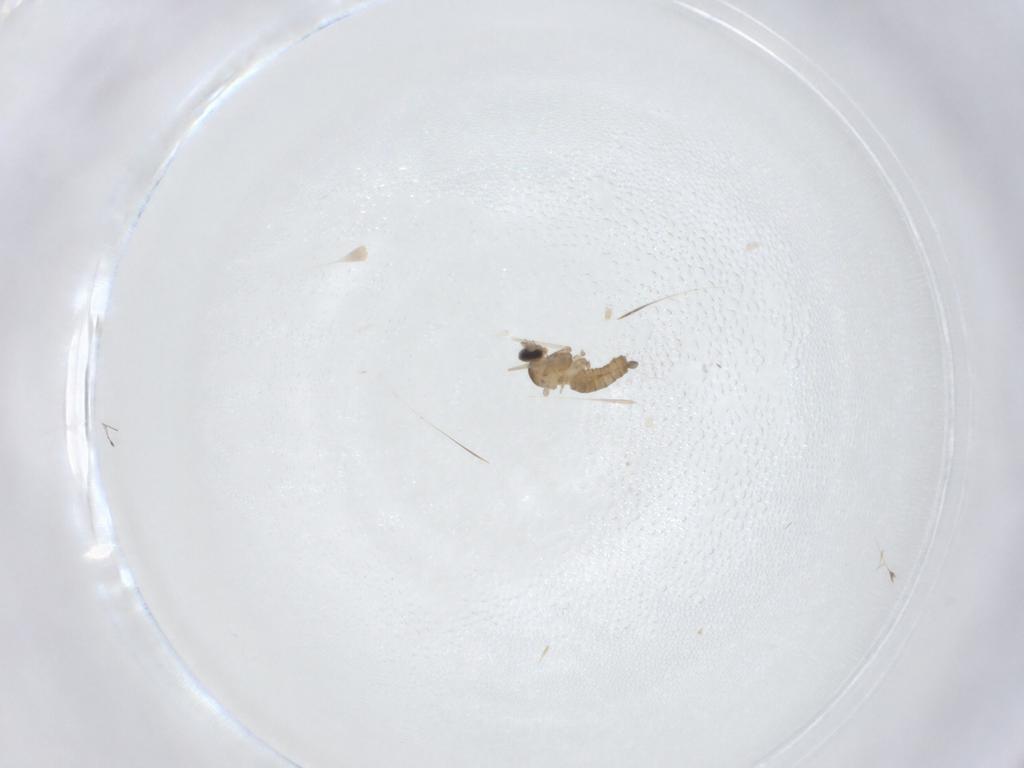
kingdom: Animalia
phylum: Arthropoda
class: Insecta
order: Diptera
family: Cecidomyiidae
